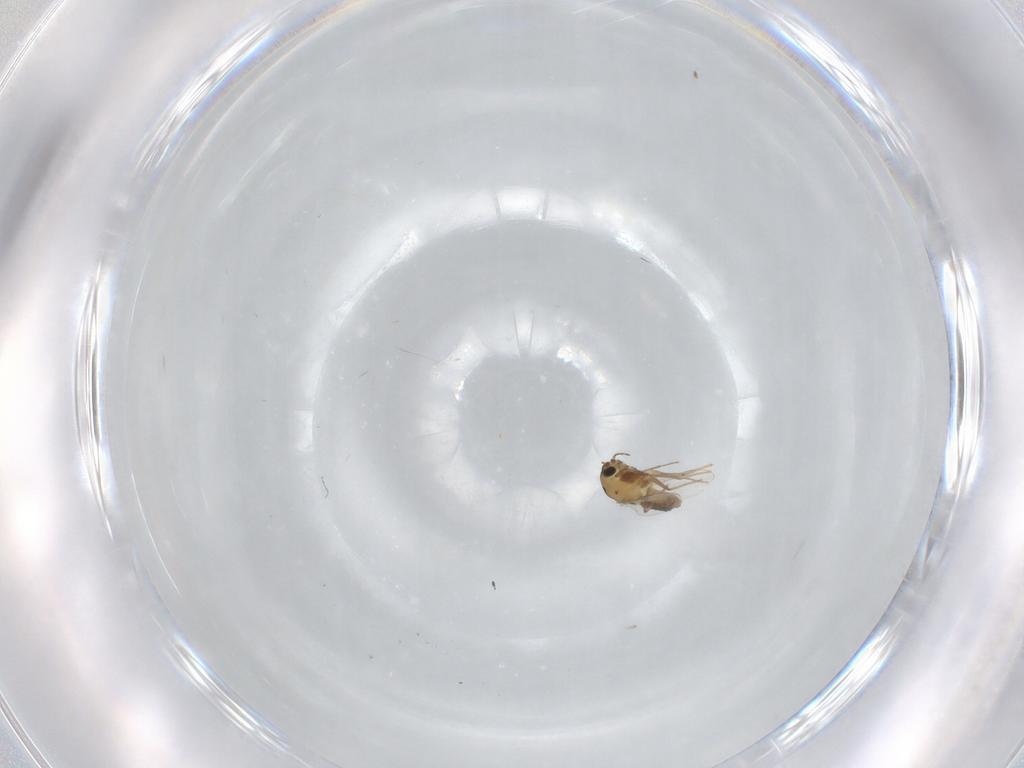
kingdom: Animalia
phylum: Arthropoda
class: Insecta
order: Diptera
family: Chironomidae
